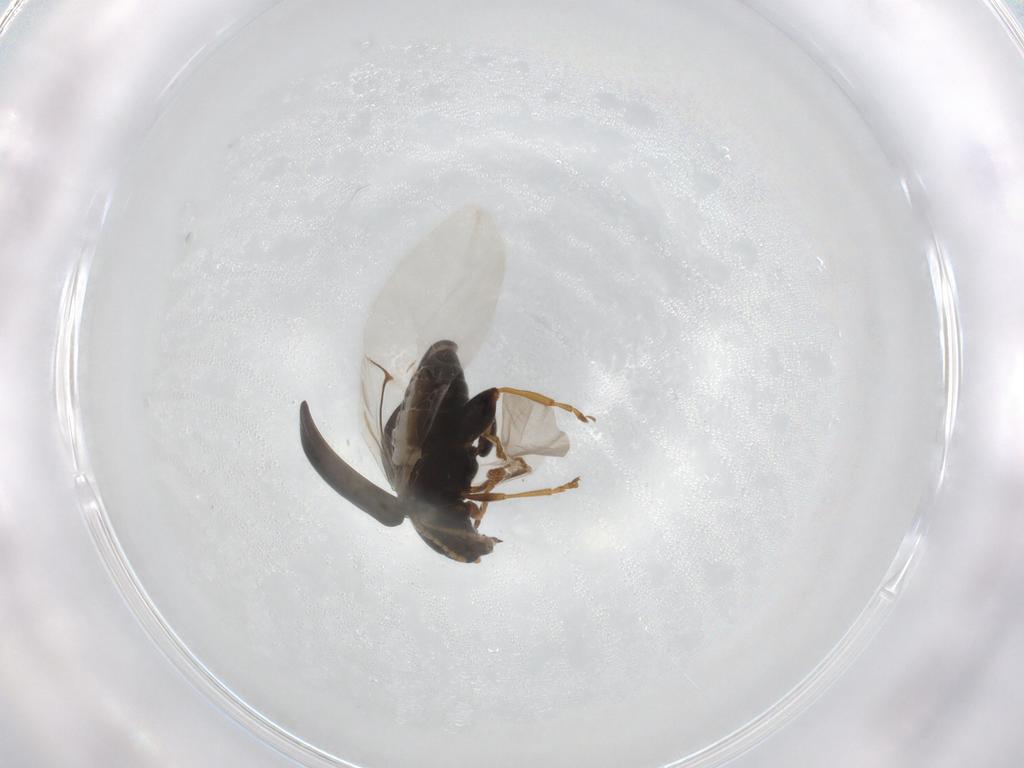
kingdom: Animalia
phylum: Arthropoda
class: Insecta
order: Coleoptera
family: Chrysomelidae
